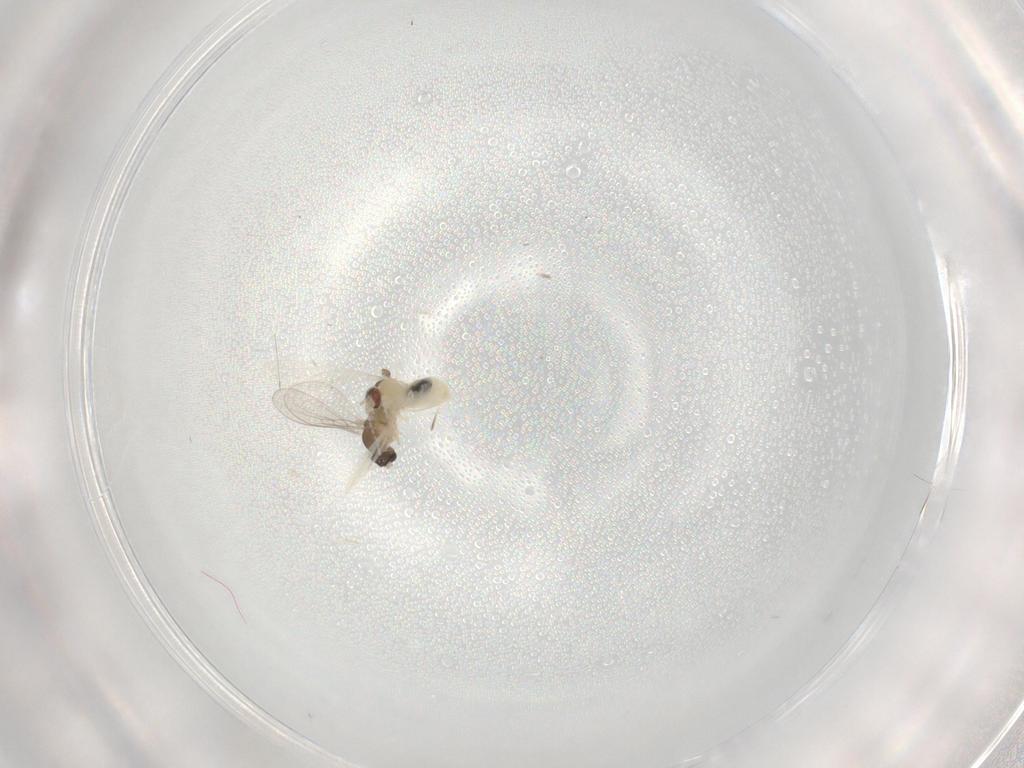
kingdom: Animalia
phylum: Arthropoda
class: Insecta
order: Diptera
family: Cecidomyiidae
